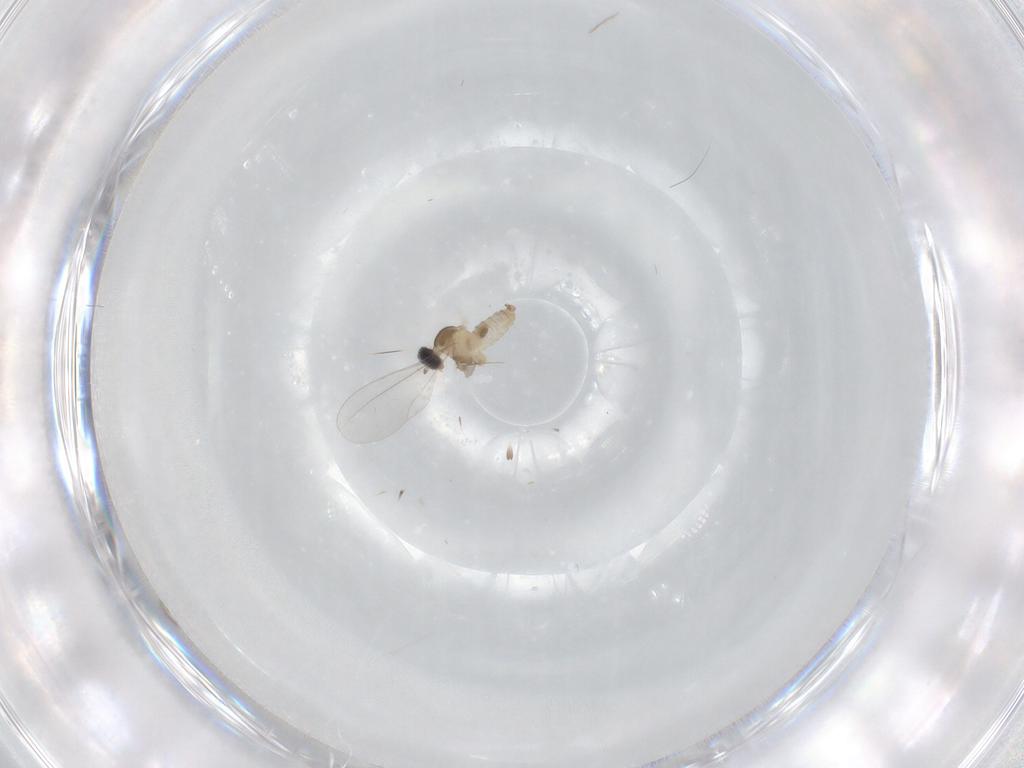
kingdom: Animalia
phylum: Arthropoda
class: Insecta
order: Diptera
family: Cecidomyiidae
